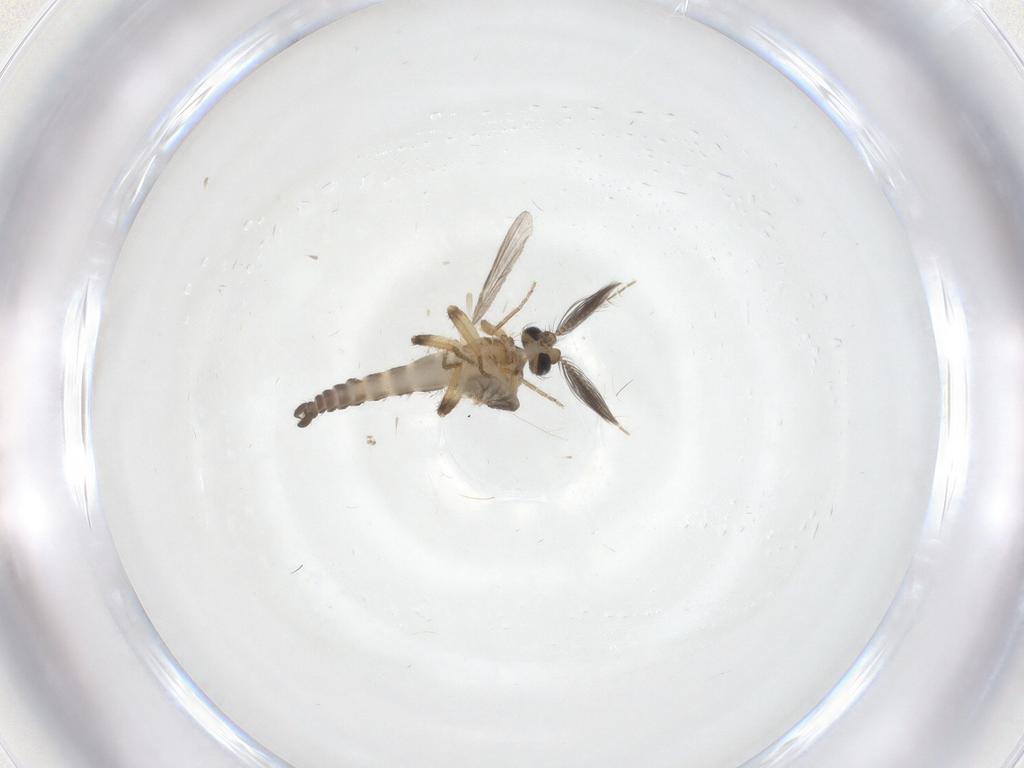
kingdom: Animalia
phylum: Arthropoda
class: Insecta
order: Diptera
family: Ceratopogonidae
